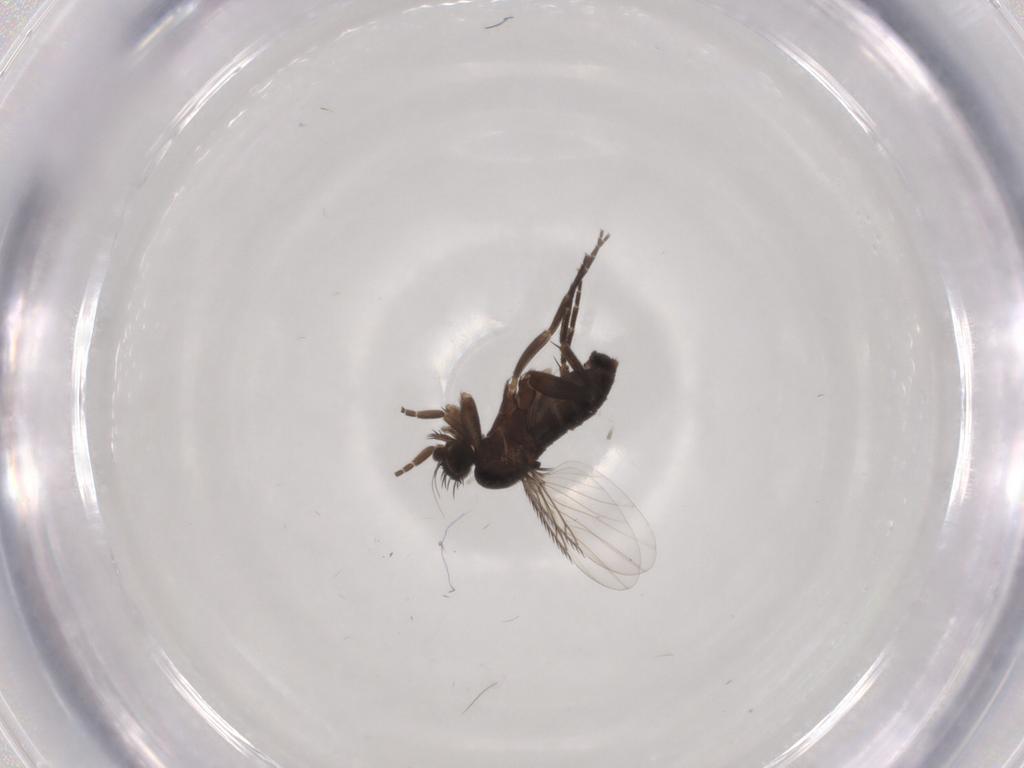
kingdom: Animalia
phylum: Arthropoda
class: Insecta
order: Diptera
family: Phoridae
